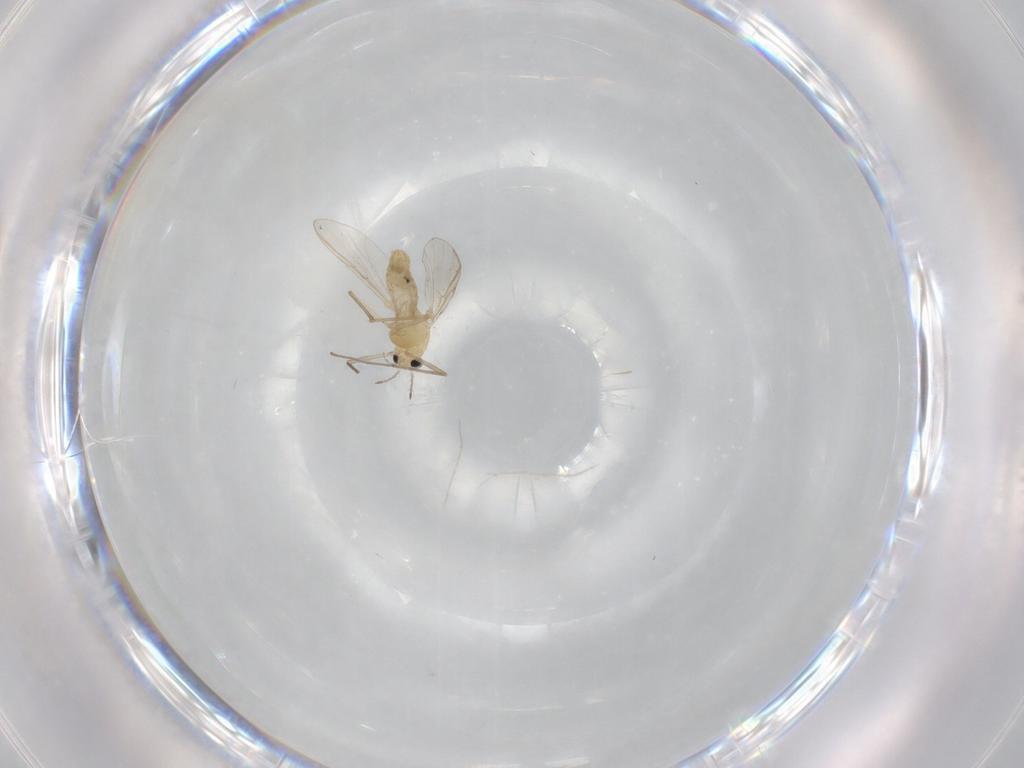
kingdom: Animalia
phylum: Arthropoda
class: Insecta
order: Diptera
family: Chironomidae
